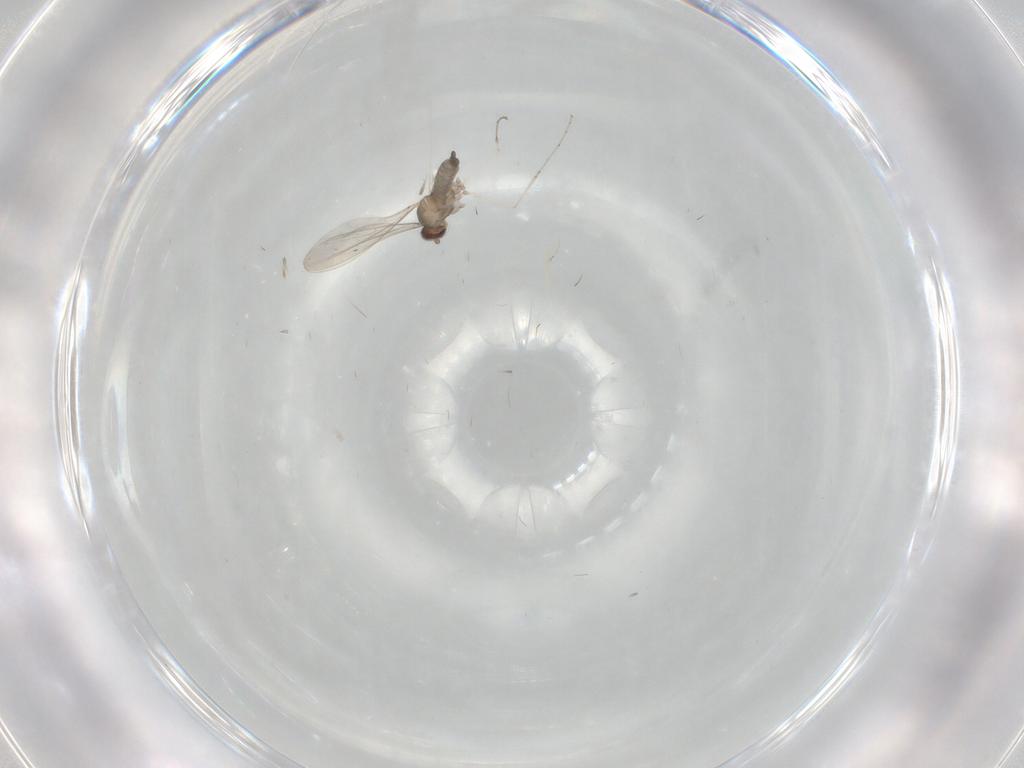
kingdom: Animalia
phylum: Arthropoda
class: Insecta
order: Diptera
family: Cecidomyiidae
